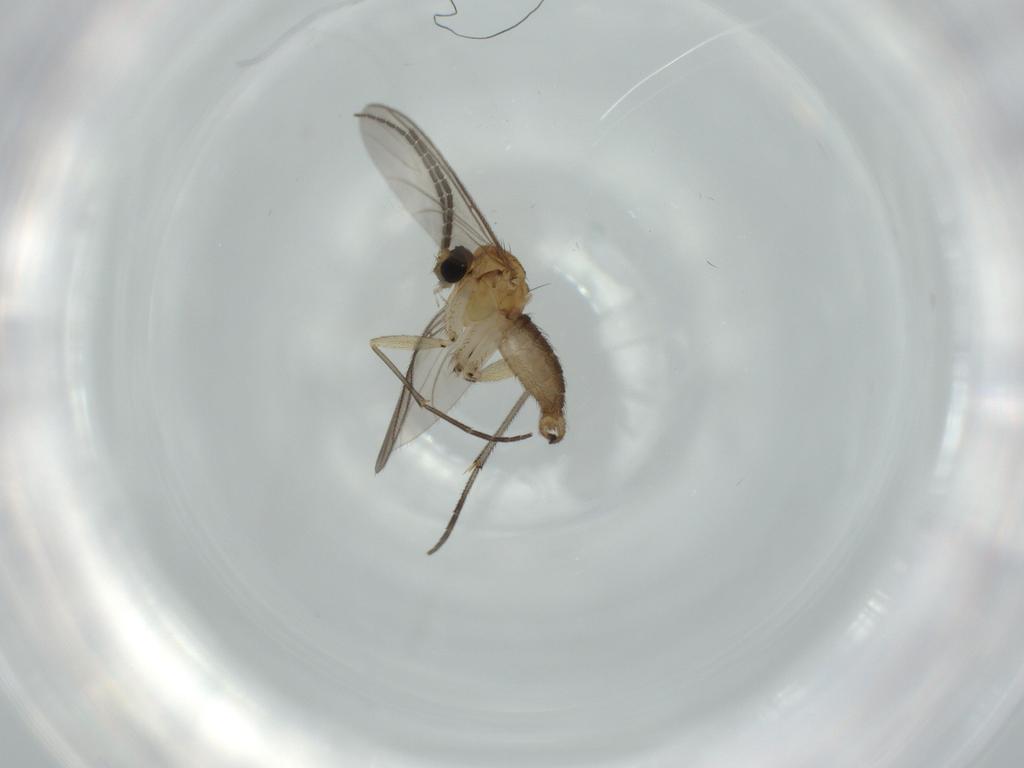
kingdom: Animalia
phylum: Arthropoda
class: Insecta
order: Diptera
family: Sciaridae
